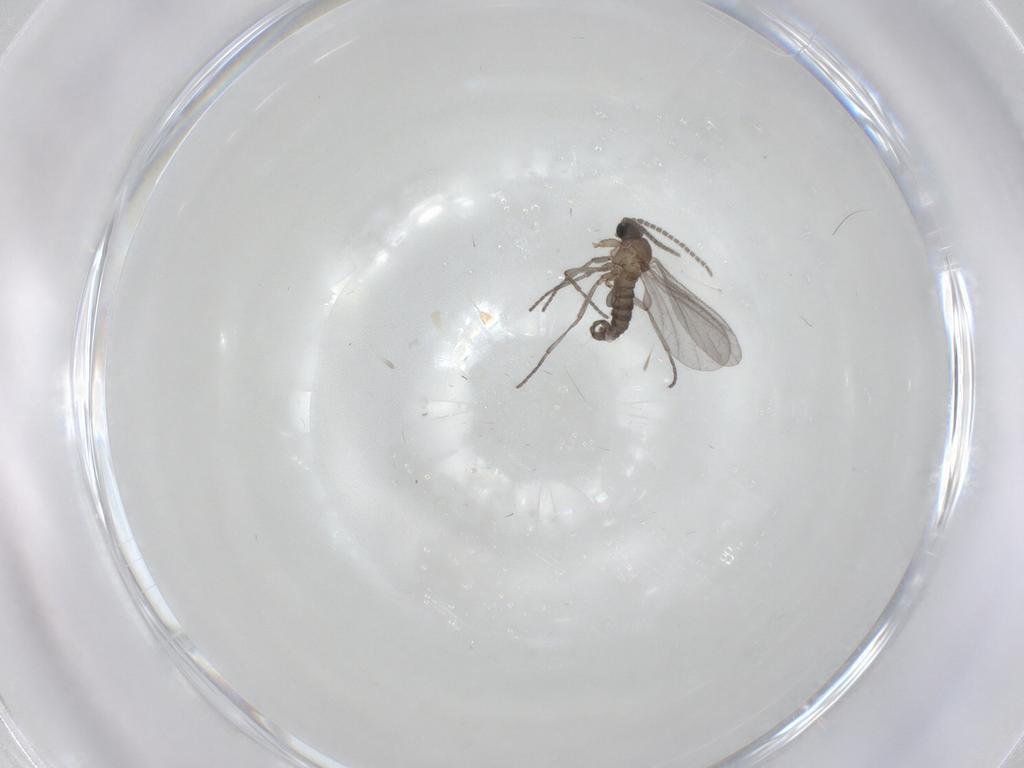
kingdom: Animalia
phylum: Arthropoda
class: Insecta
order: Diptera
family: Sciaridae
